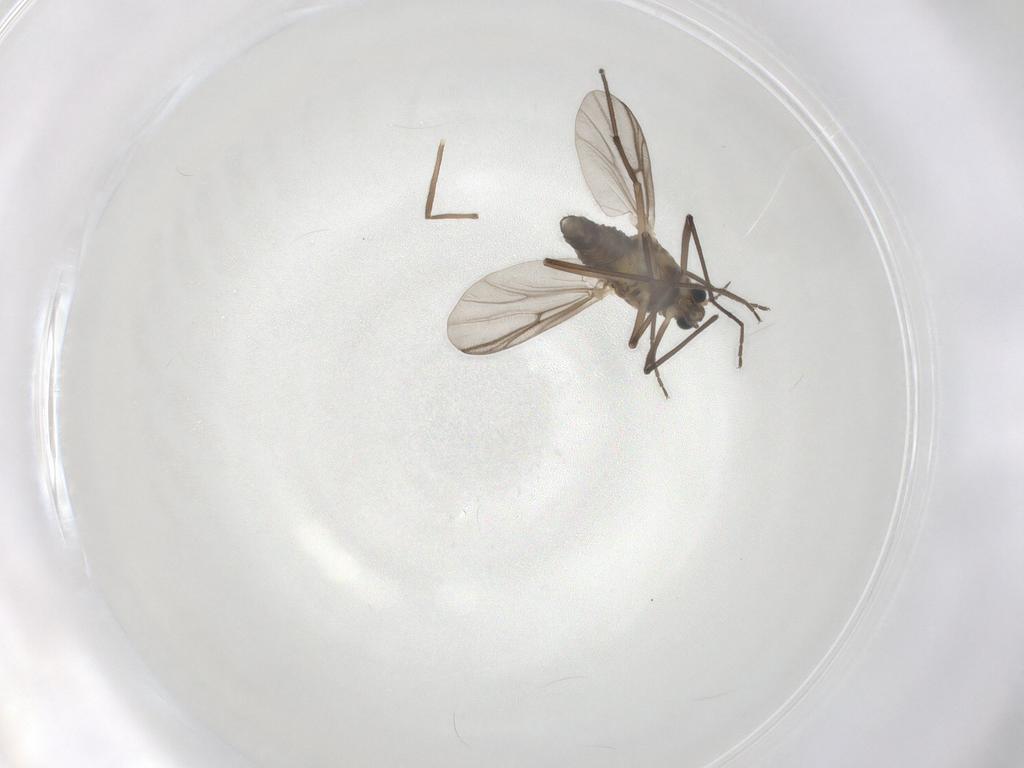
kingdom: Animalia
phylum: Arthropoda
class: Insecta
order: Diptera
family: Chironomidae
